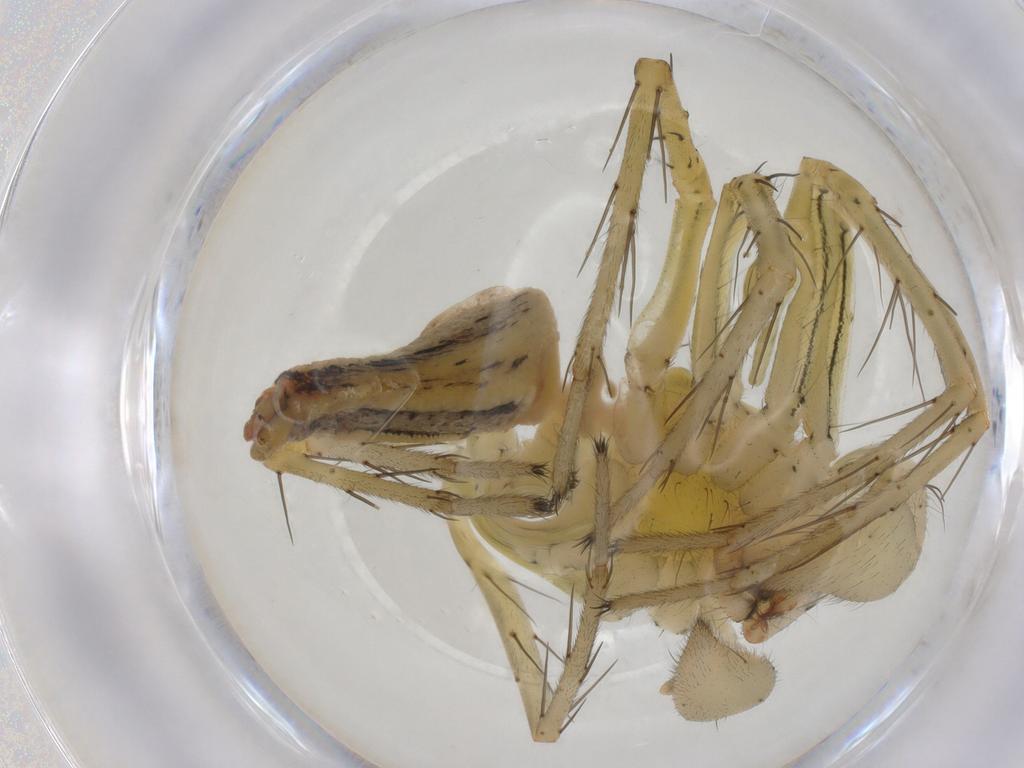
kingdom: Animalia
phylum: Arthropoda
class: Arachnida
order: Araneae
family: Oxyopidae
